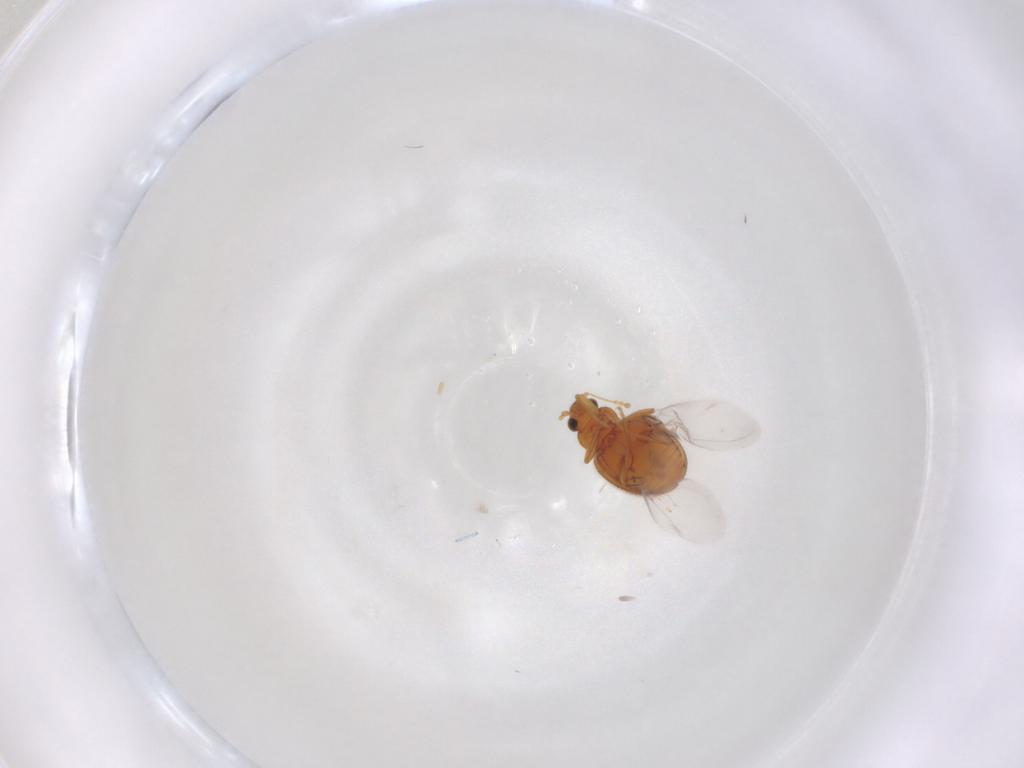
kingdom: Animalia
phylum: Arthropoda
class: Insecta
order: Coleoptera
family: Latridiidae
